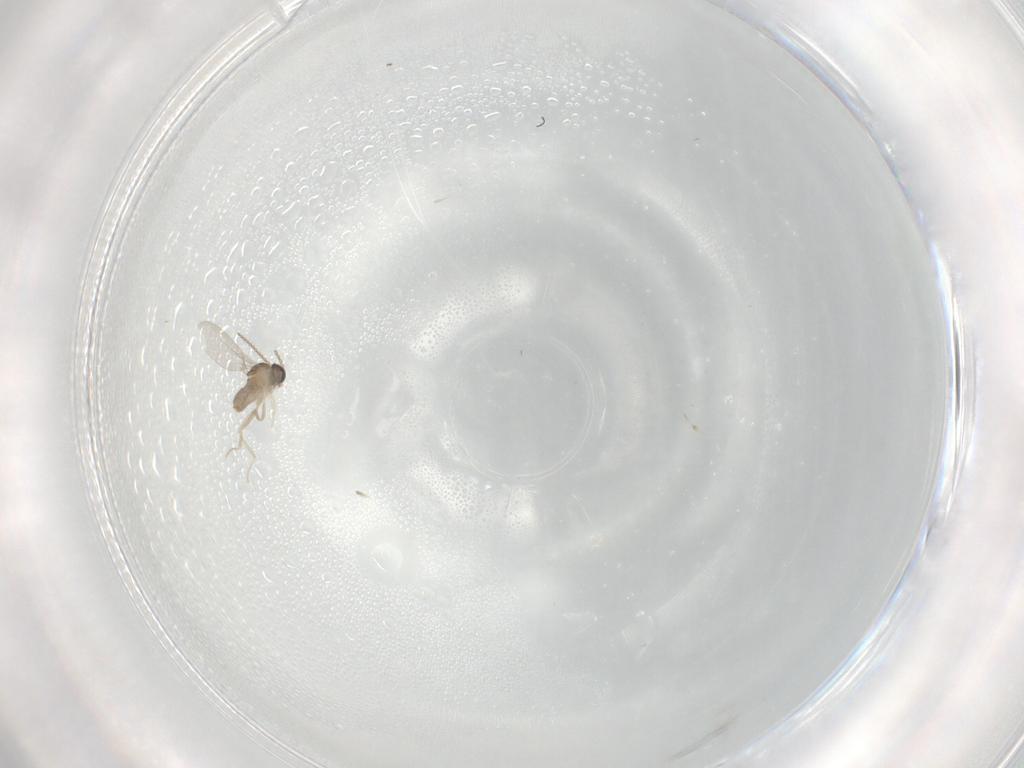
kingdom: Animalia
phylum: Arthropoda
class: Insecta
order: Diptera
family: Cecidomyiidae
